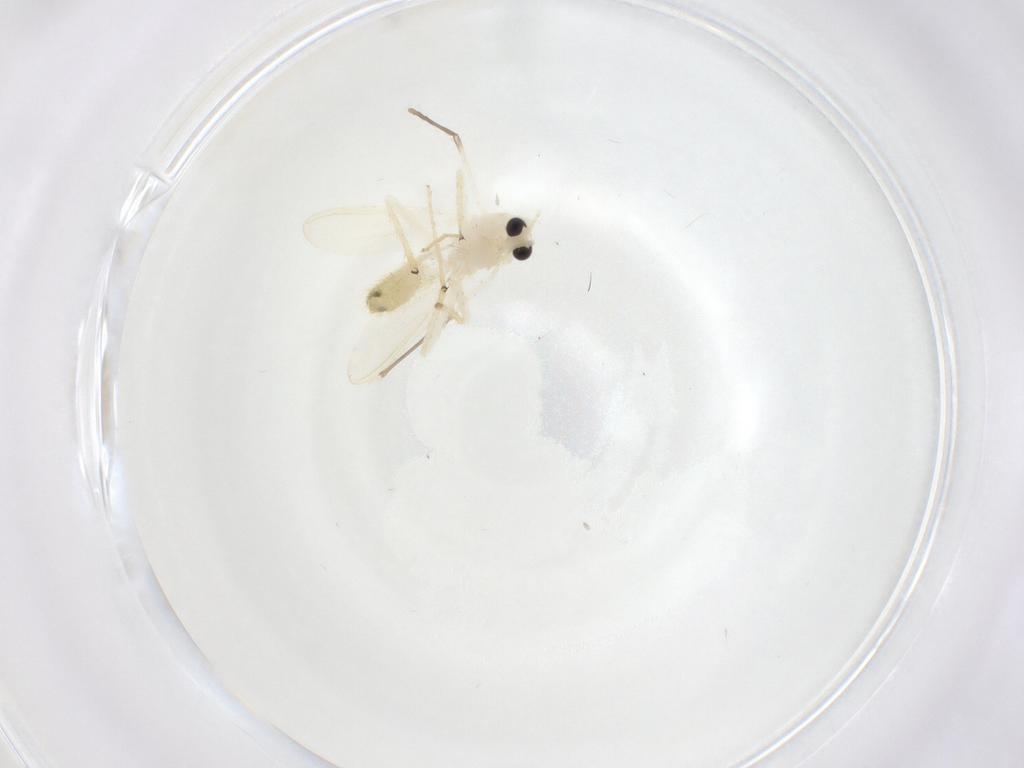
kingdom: Animalia
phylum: Arthropoda
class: Insecta
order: Diptera
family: Chironomidae
